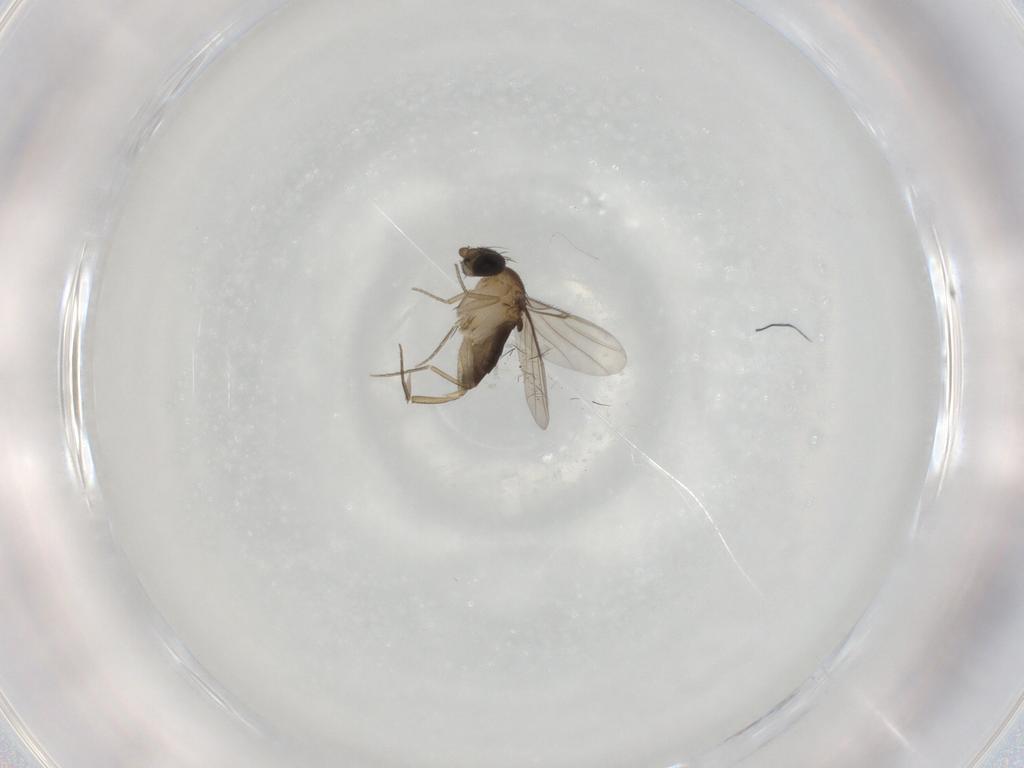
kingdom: Animalia
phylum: Arthropoda
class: Insecta
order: Diptera
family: Phoridae
